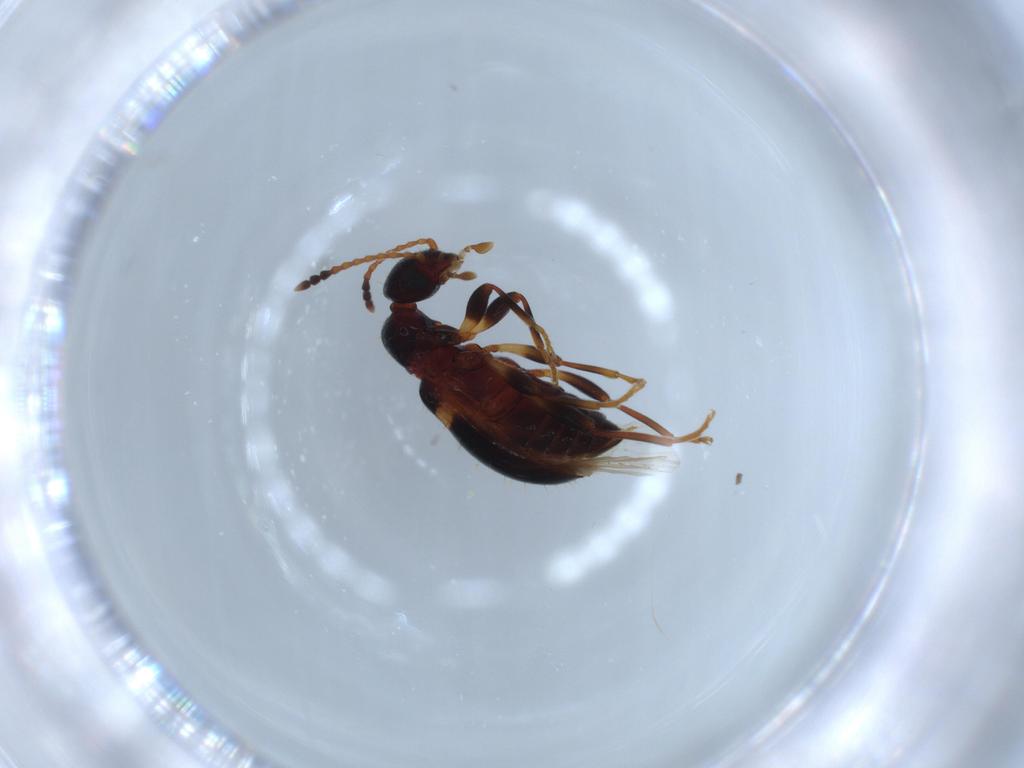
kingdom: Animalia
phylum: Arthropoda
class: Insecta
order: Coleoptera
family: Anthicidae
